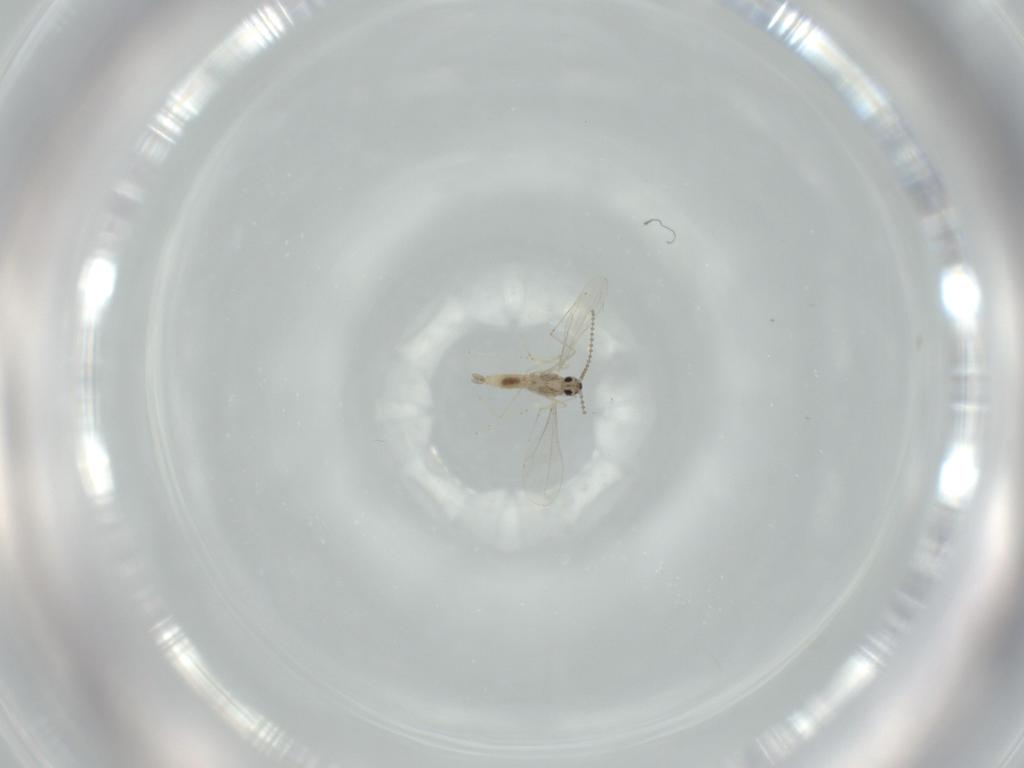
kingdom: Animalia
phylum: Arthropoda
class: Insecta
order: Diptera
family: Cecidomyiidae
